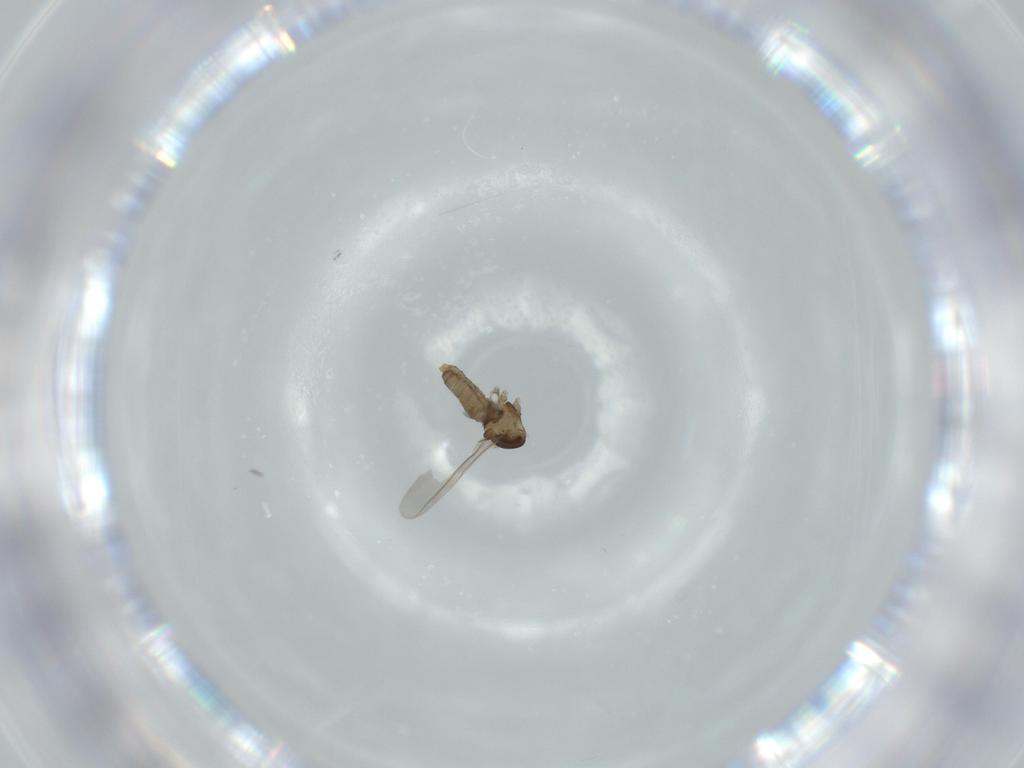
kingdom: Animalia
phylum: Arthropoda
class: Insecta
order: Diptera
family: Cecidomyiidae
